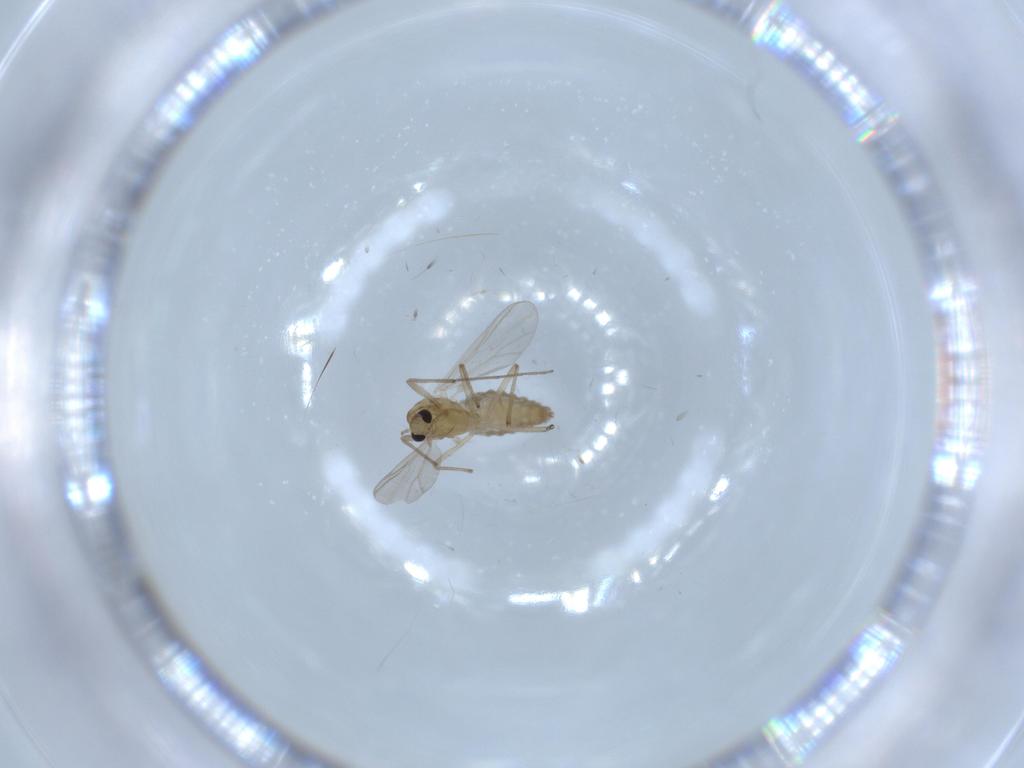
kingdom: Animalia
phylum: Arthropoda
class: Insecta
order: Diptera
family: Chironomidae
